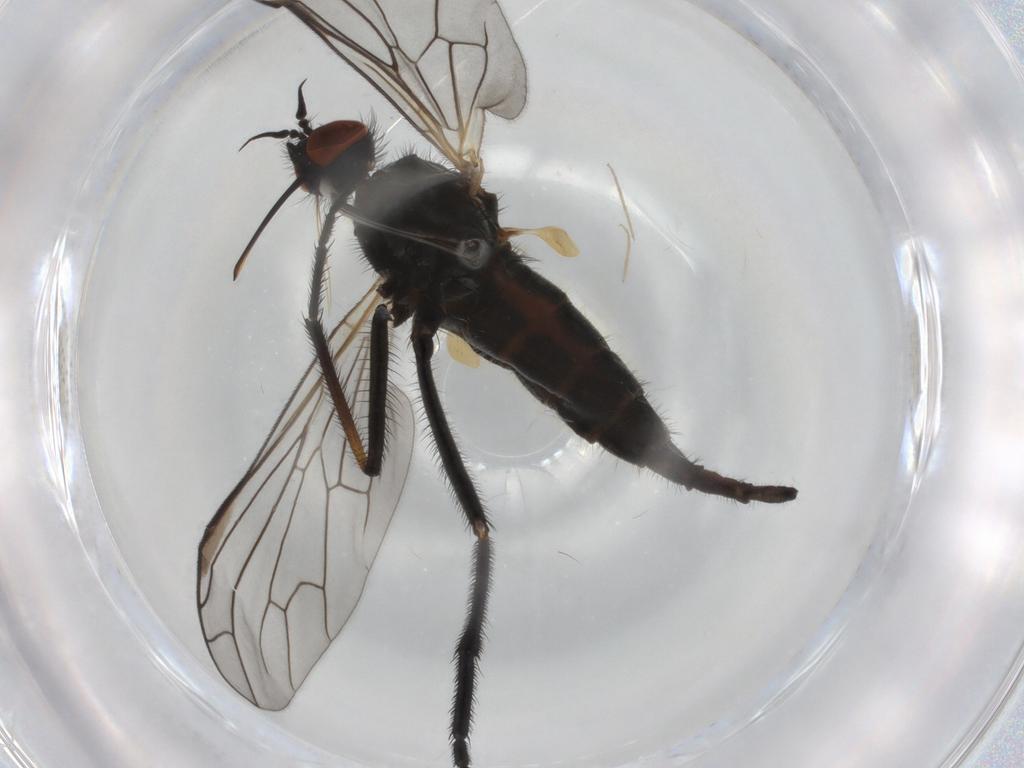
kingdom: Animalia
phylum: Arthropoda
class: Insecta
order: Diptera
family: Empididae
